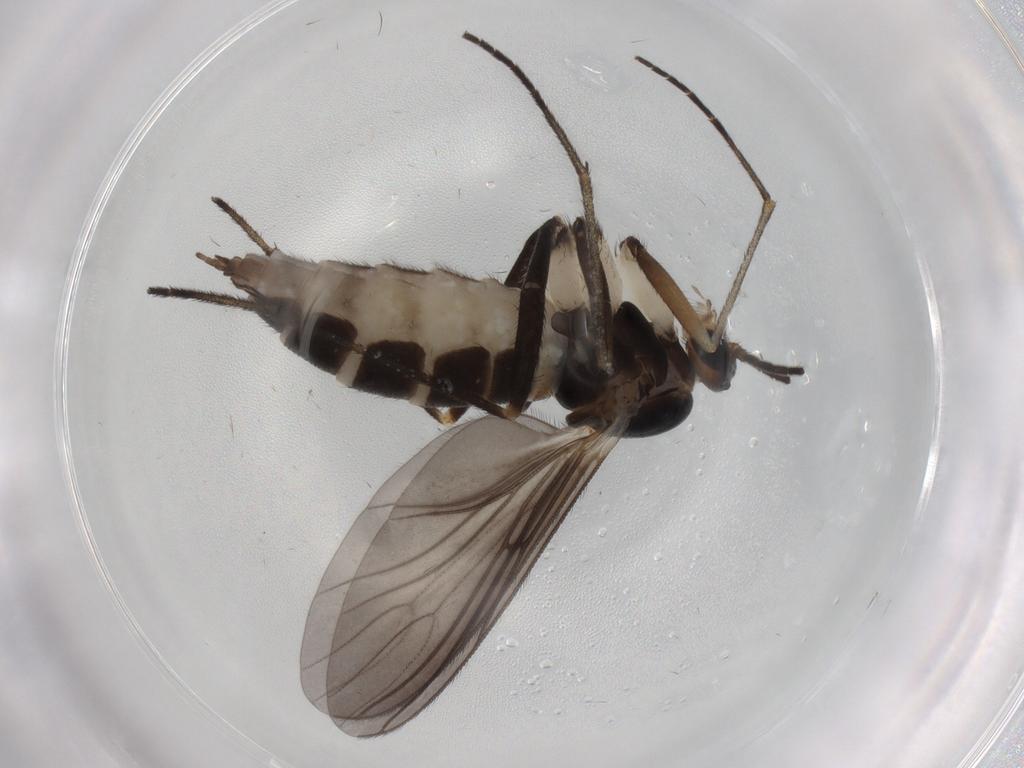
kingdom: Animalia
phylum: Arthropoda
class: Insecta
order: Diptera
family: Sciaridae
